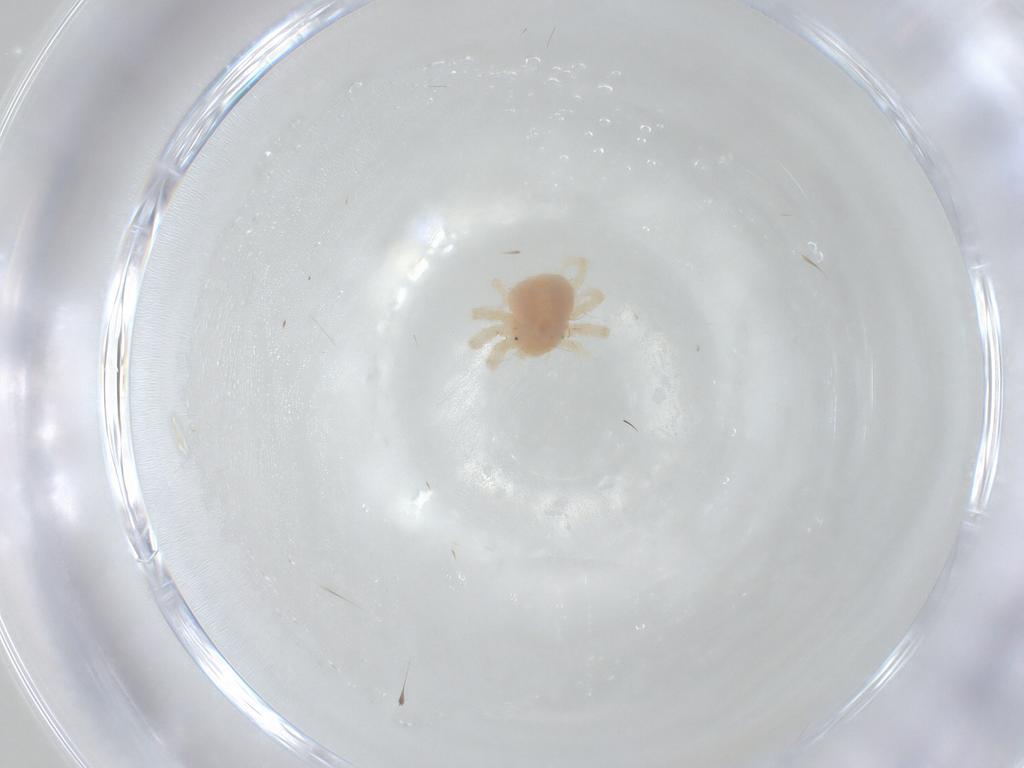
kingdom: Animalia
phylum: Arthropoda
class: Arachnida
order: Trombidiformes
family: Anystidae
